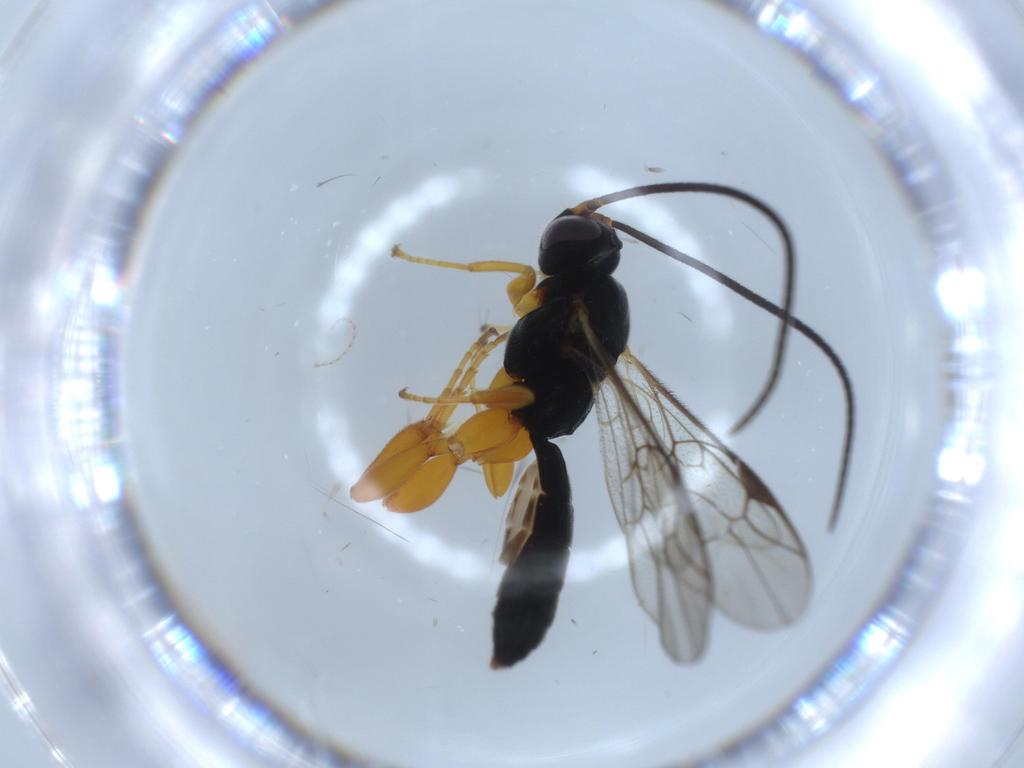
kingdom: Animalia
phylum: Arthropoda
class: Insecta
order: Hymenoptera
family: Ichneumonidae
